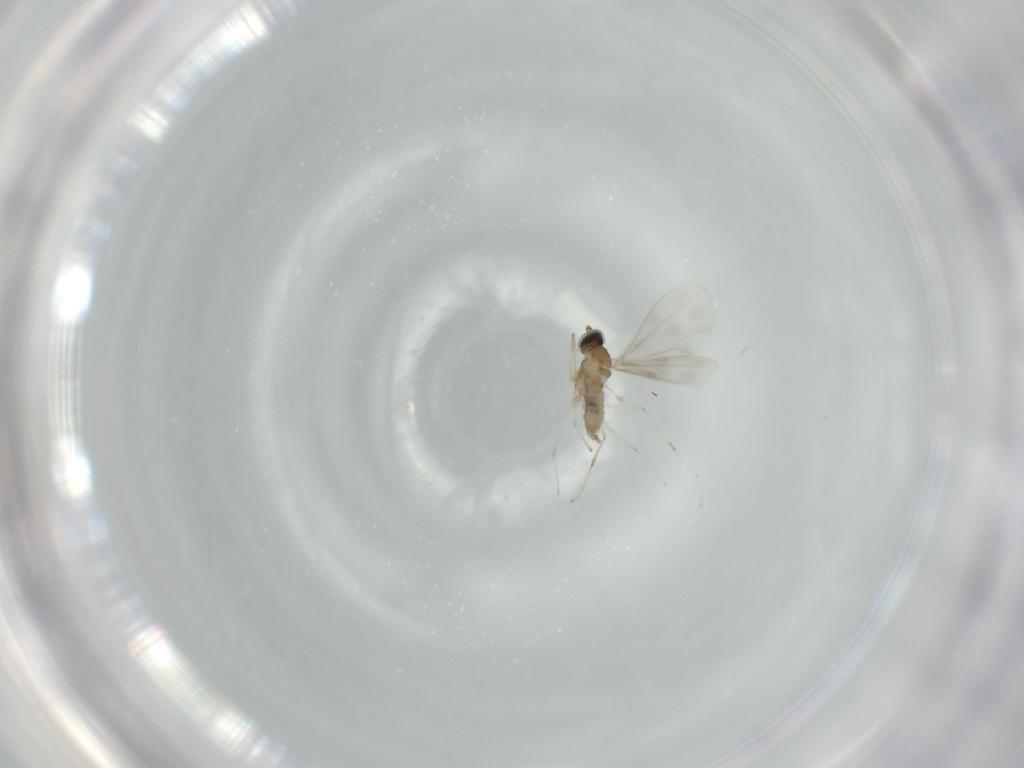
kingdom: Animalia
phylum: Arthropoda
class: Insecta
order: Diptera
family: Cecidomyiidae
